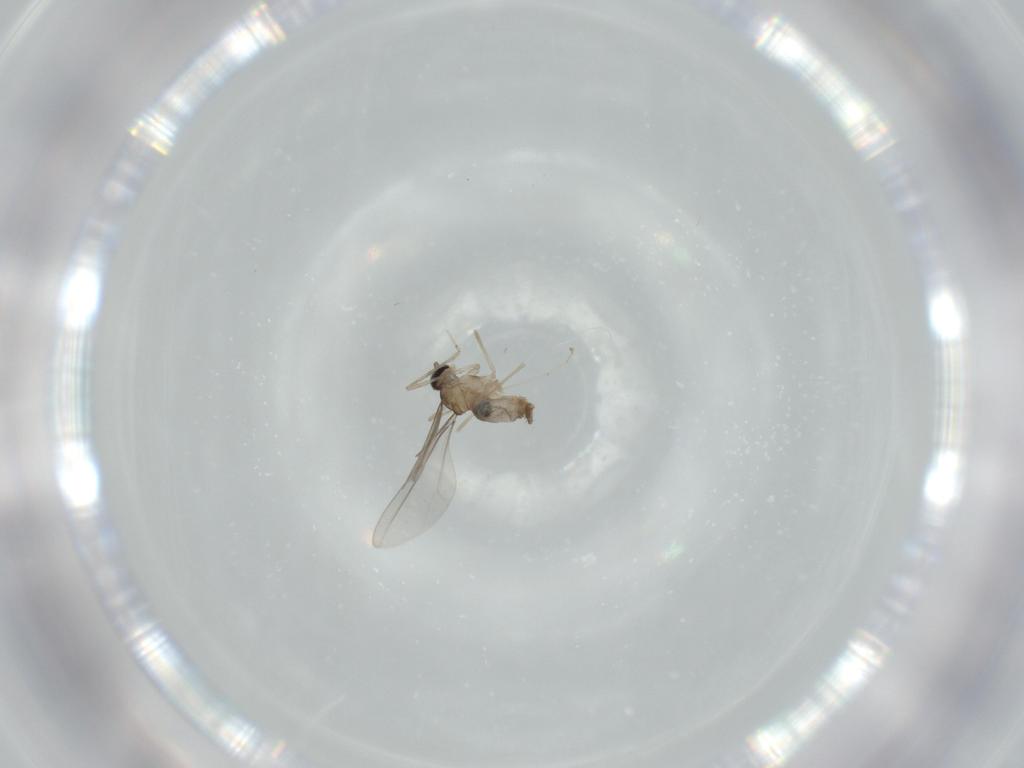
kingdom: Animalia
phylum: Arthropoda
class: Insecta
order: Diptera
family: Cecidomyiidae
